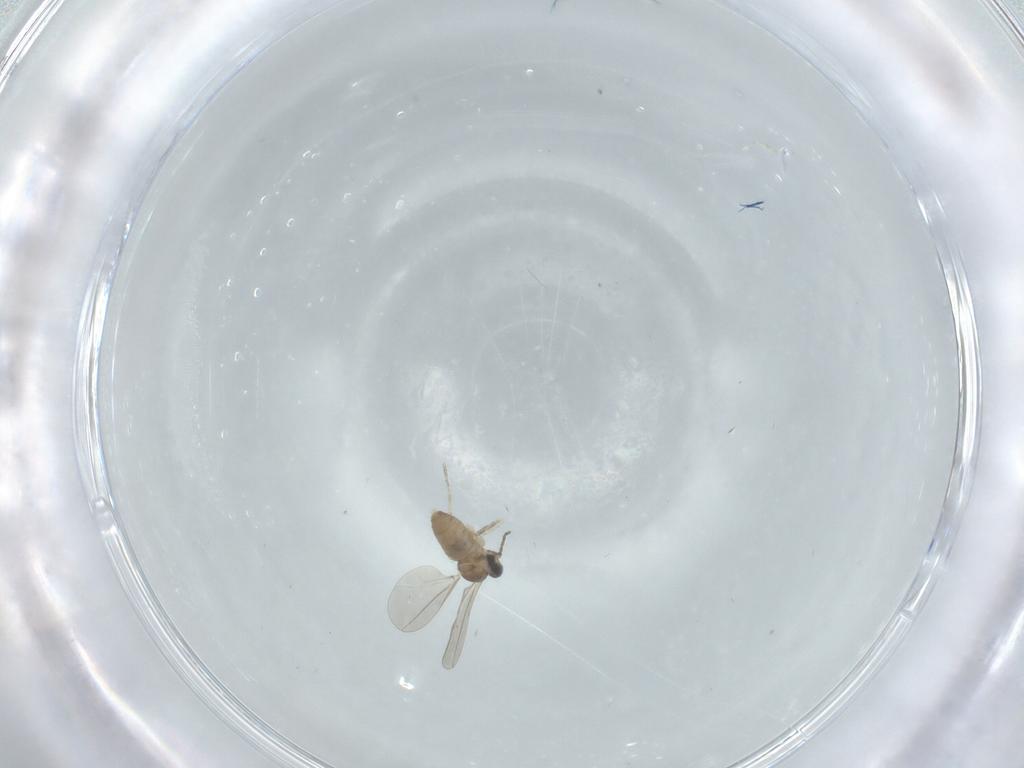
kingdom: Animalia
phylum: Arthropoda
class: Insecta
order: Diptera
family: Cecidomyiidae
